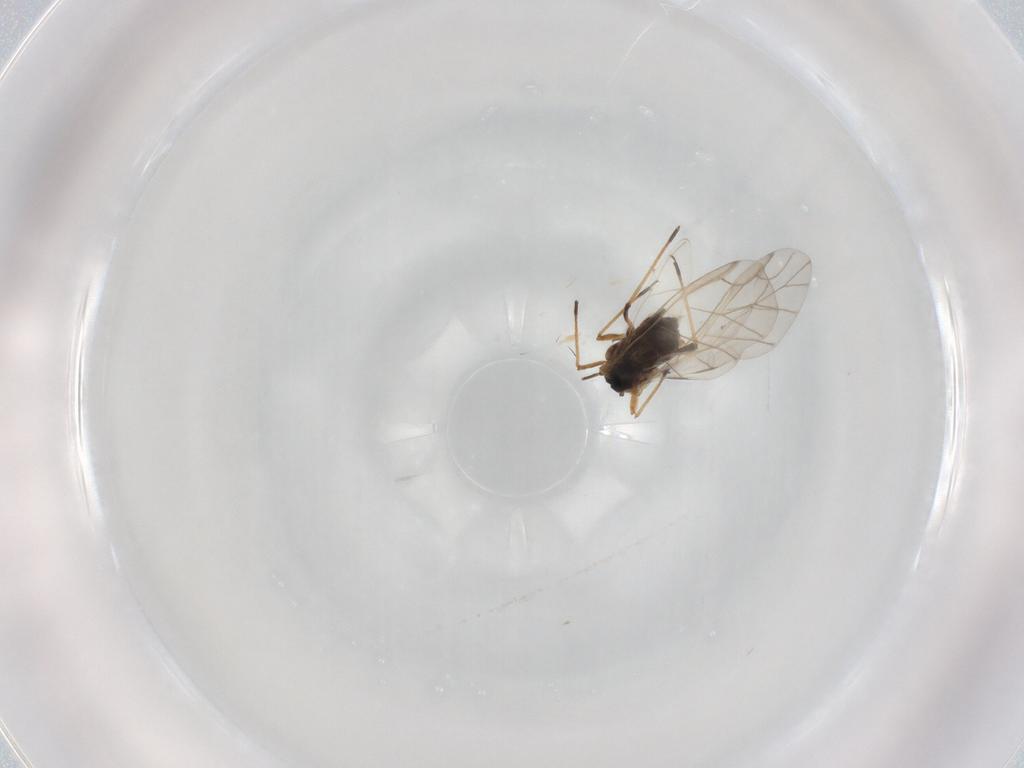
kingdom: Animalia
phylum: Arthropoda
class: Insecta
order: Hemiptera
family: Aphididae
